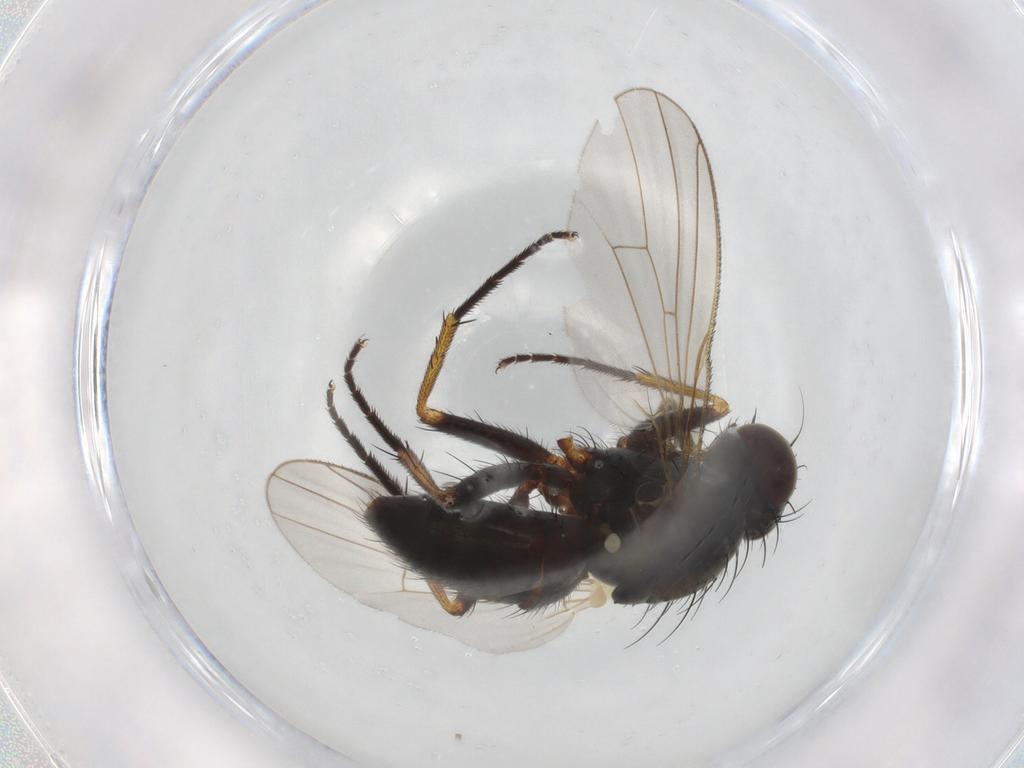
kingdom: Animalia
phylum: Arthropoda
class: Insecta
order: Diptera
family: Muscidae
